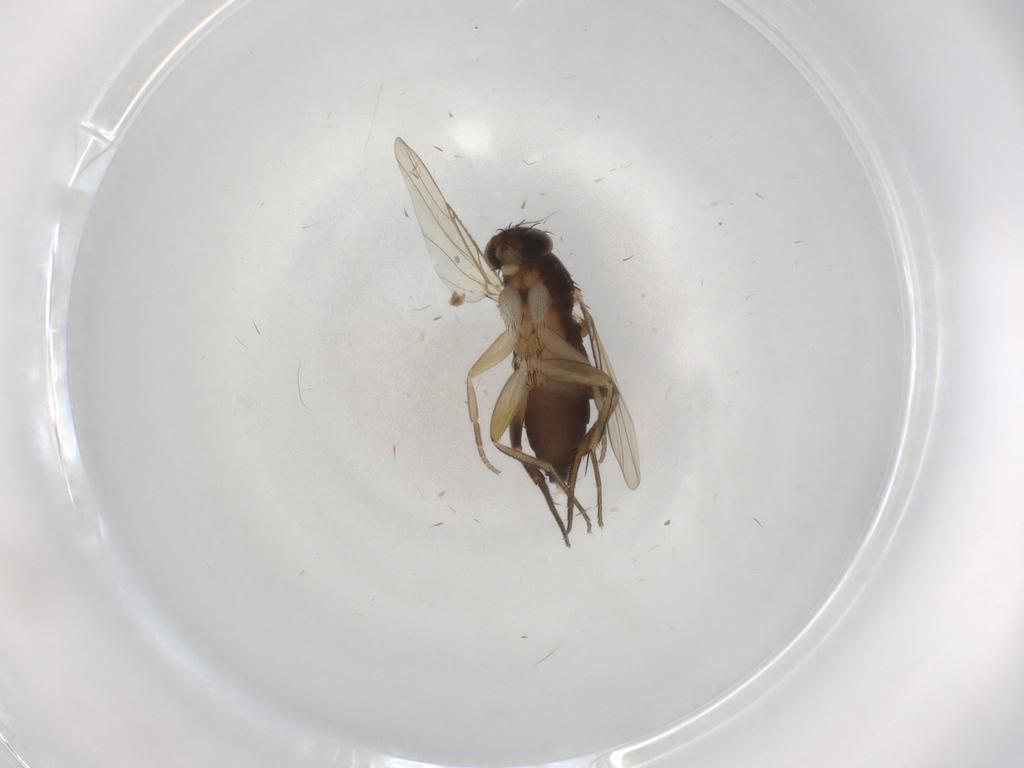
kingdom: Animalia
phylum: Arthropoda
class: Insecta
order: Diptera
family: Phoridae
